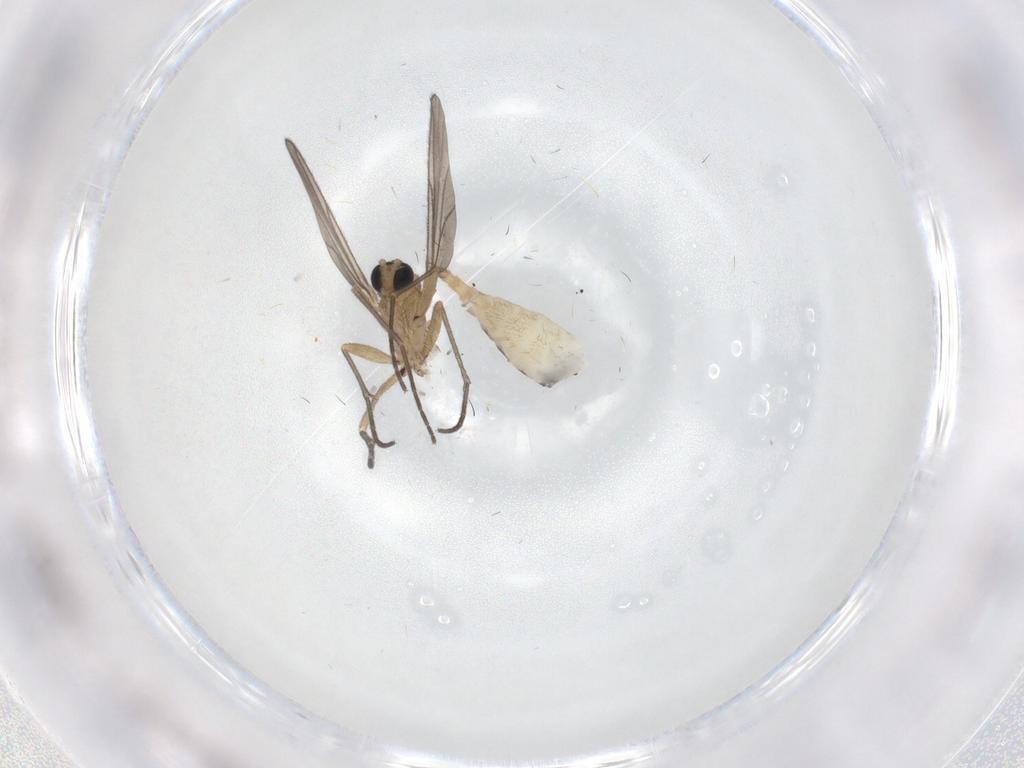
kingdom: Animalia
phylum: Arthropoda
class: Insecta
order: Diptera
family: Sciaridae
